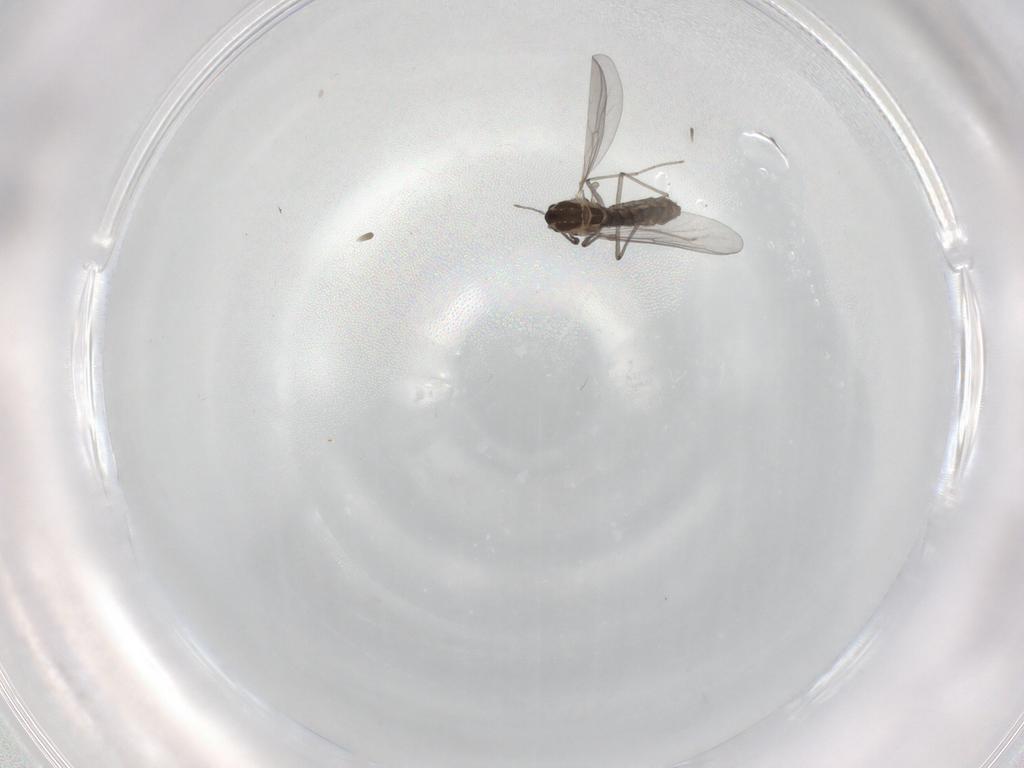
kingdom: Animalia
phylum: Arthropoda
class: Insecta
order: Diptera
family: Chironomidae
